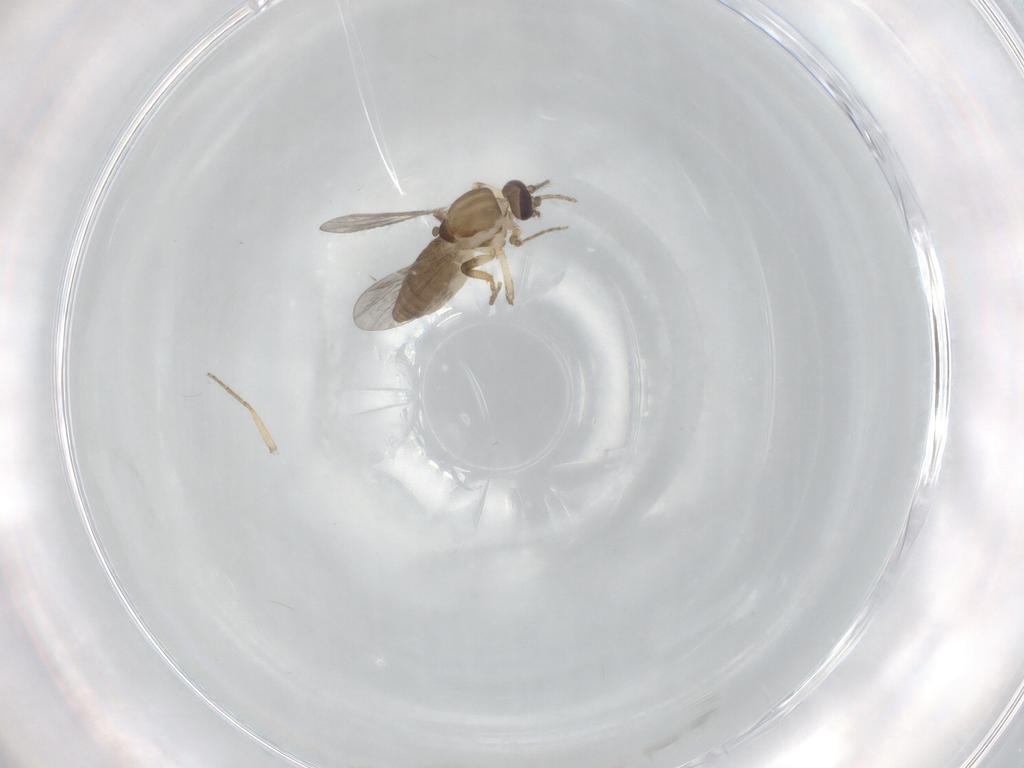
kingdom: Animalia
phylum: Arthropoda
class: Insecta
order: Diptera
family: Ceratopogonidae
